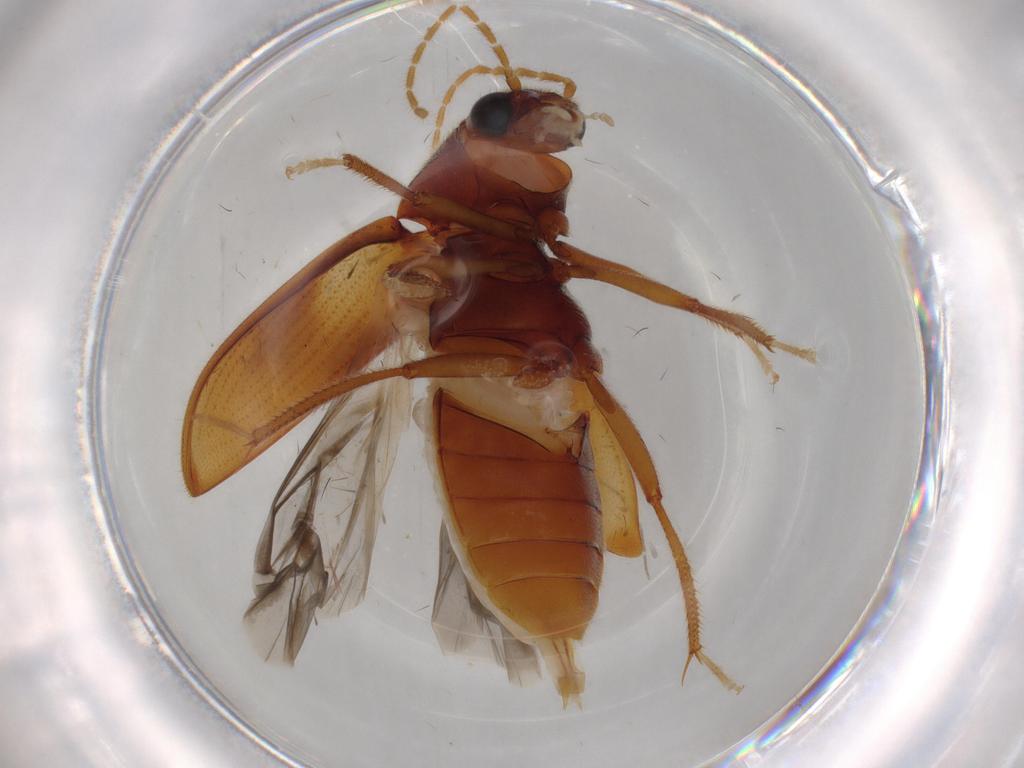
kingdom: Animalia
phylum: Arthropoda
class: Insecta
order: Coleoptera
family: Ptilodactylidae
